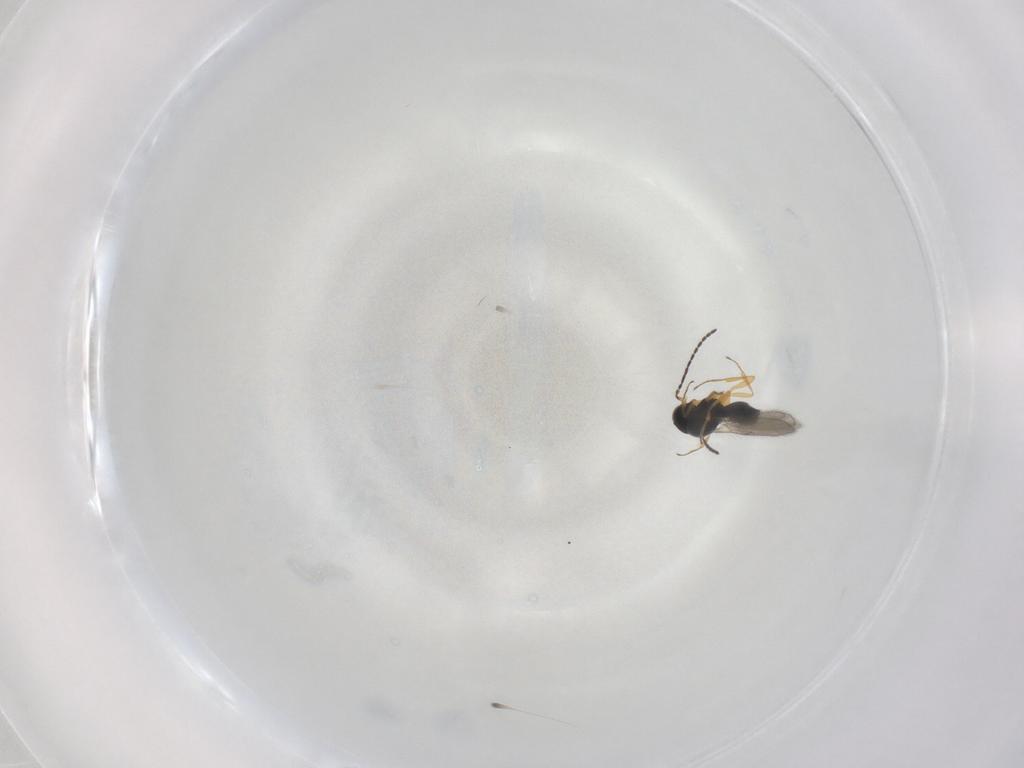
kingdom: Animalia
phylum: Arthropoda
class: Insecta
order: Hymenoptera
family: Scelionidae
